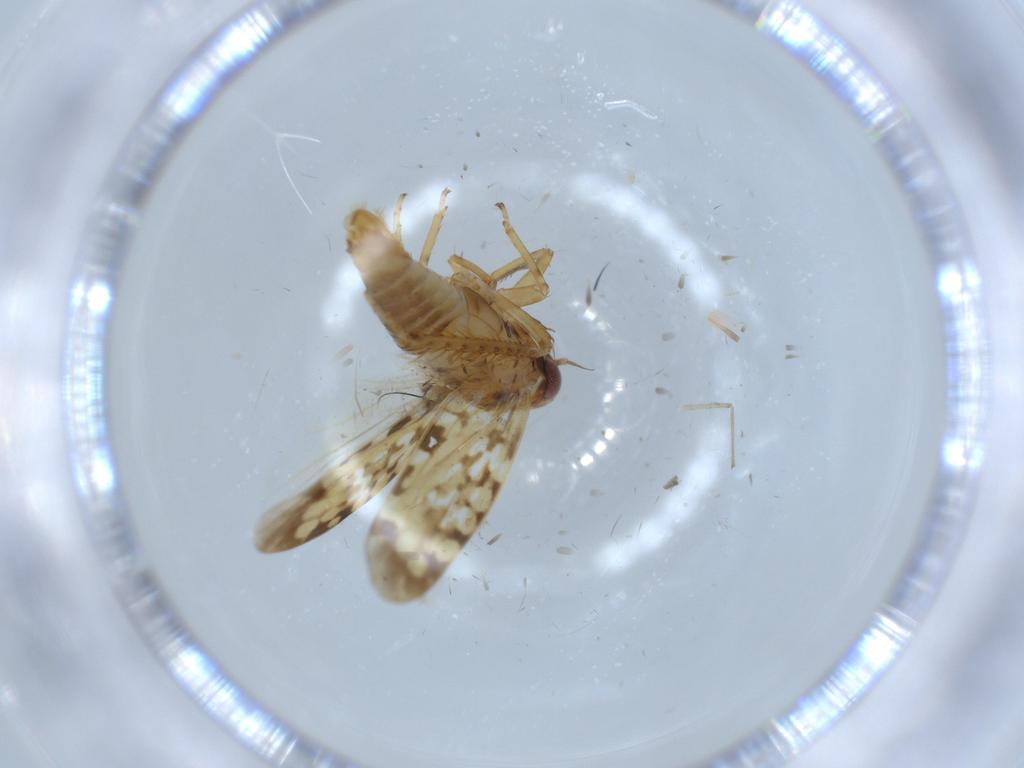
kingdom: Animalia
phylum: Arthropoda
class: Insecta
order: Hemiptera
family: Cicadellidae
